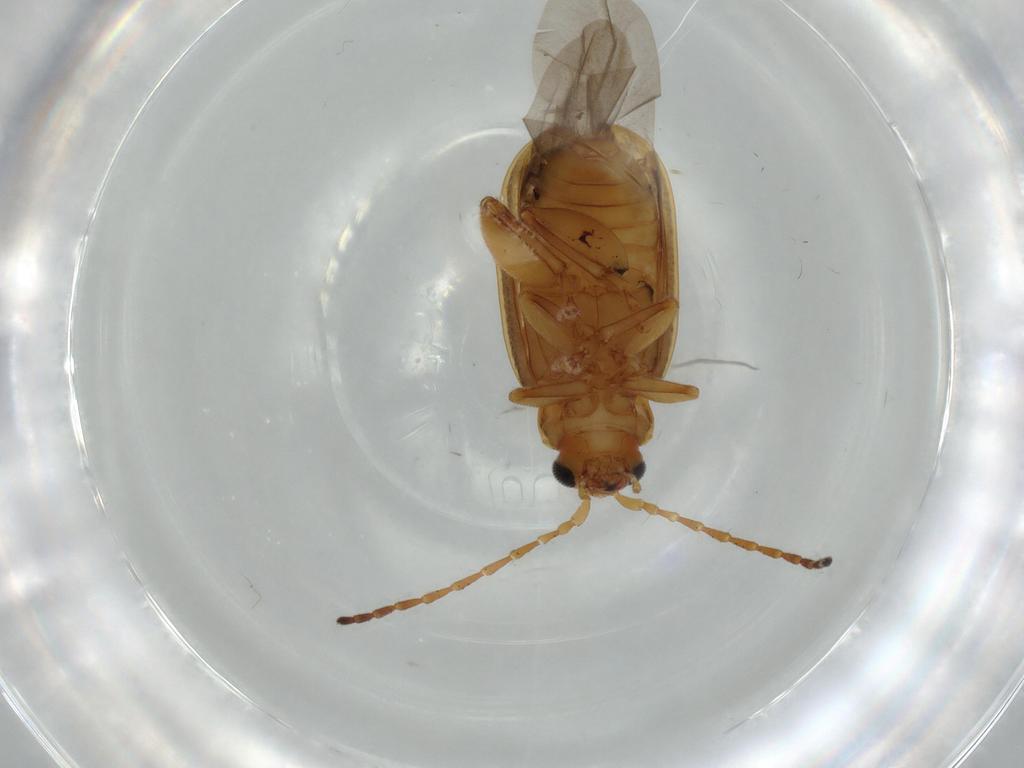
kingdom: Animalia
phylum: Arthropoda
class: Insecta
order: Coleoptera
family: Chrysomelidae
